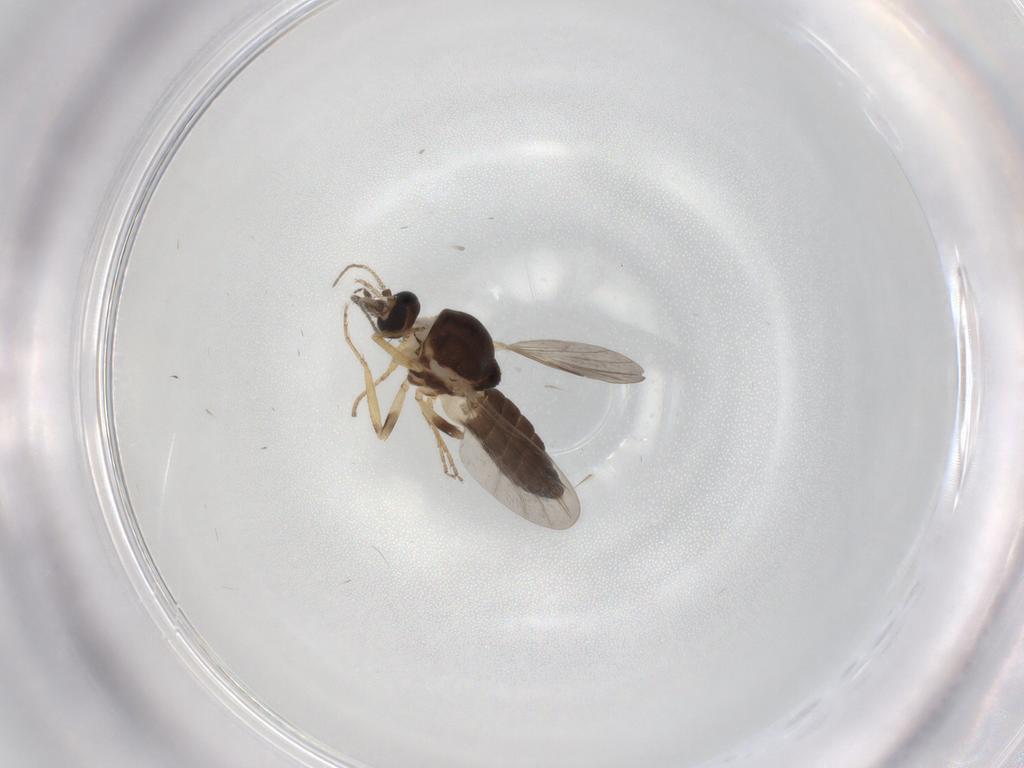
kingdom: Animalia
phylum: Arthropoda
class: Insecta
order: Diptera
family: Ceratopogonidae
